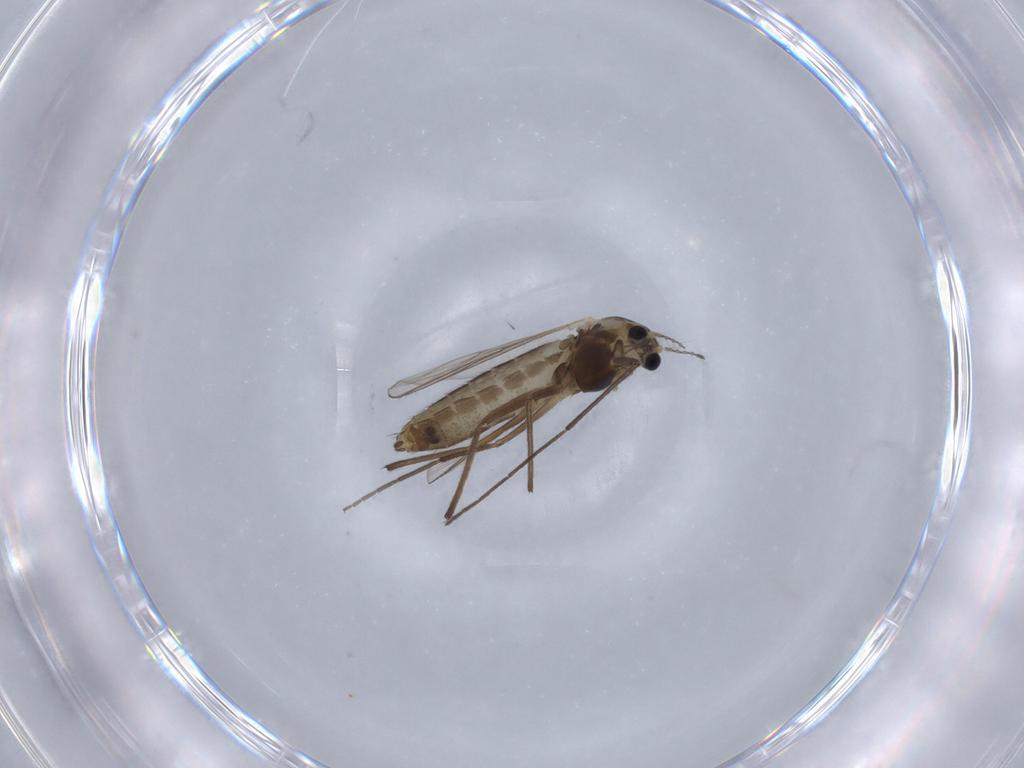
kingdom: Animalia
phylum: Arthropoda
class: Insecta
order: Diptera
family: Chironomidae
